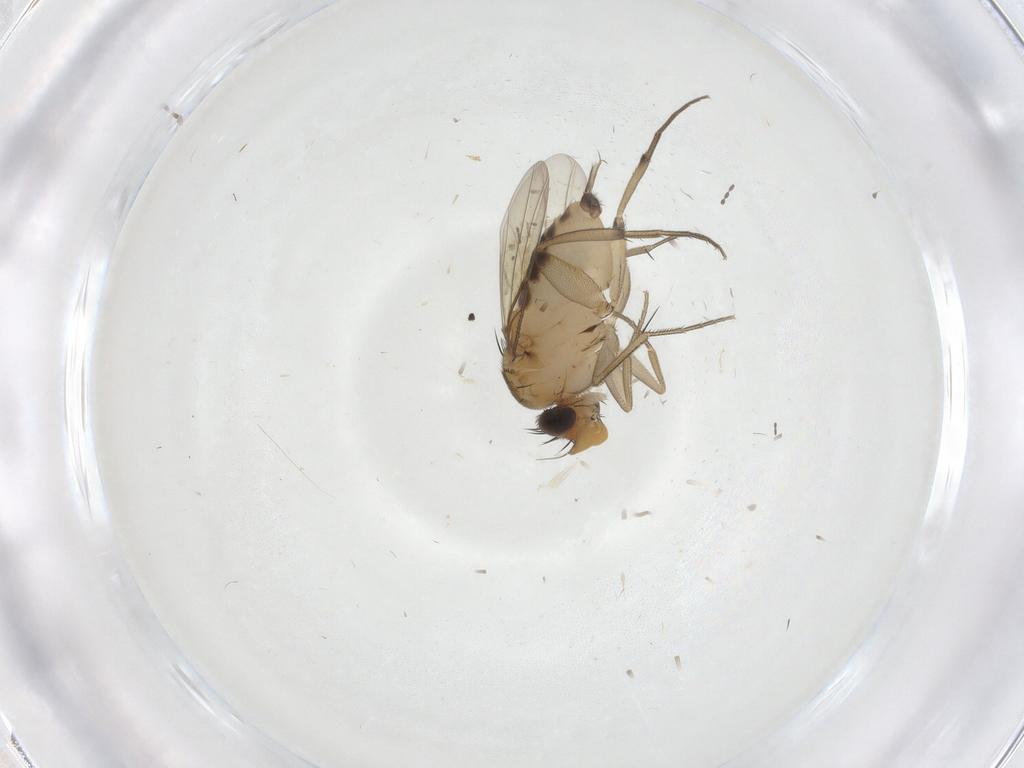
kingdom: Animalia
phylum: Arthropoda
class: Insecta
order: Diptera
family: Cecidomyiidae
